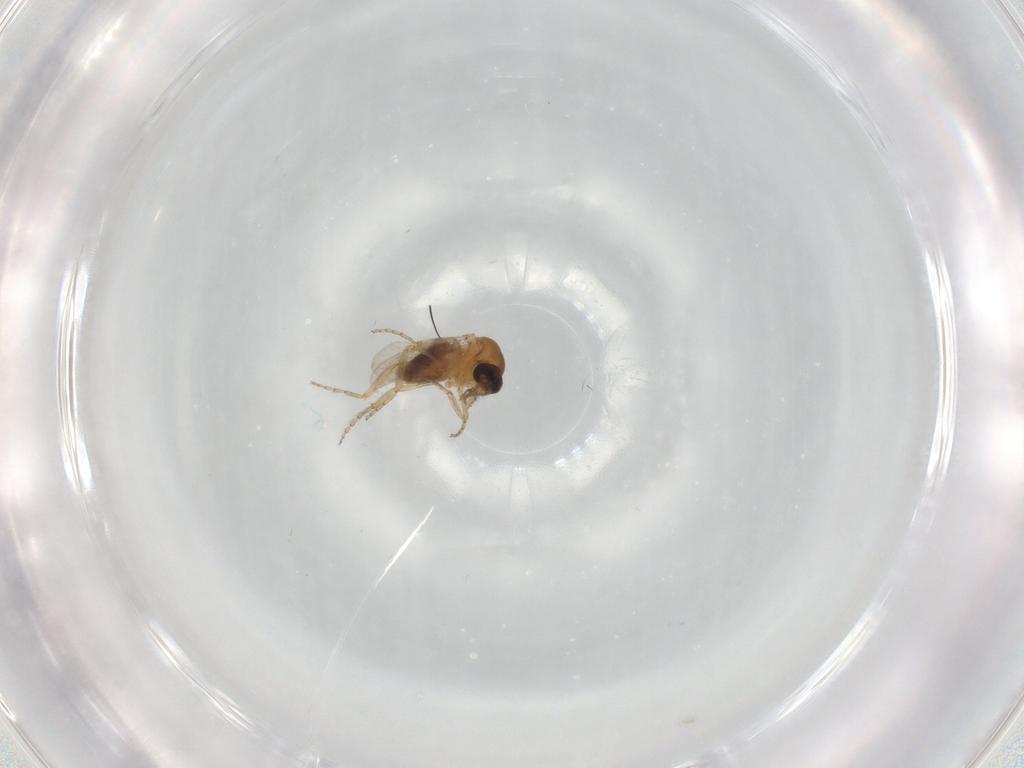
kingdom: Animalia
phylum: Arthropoda
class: Insecta
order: Diptera
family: Ceratopogonidae
